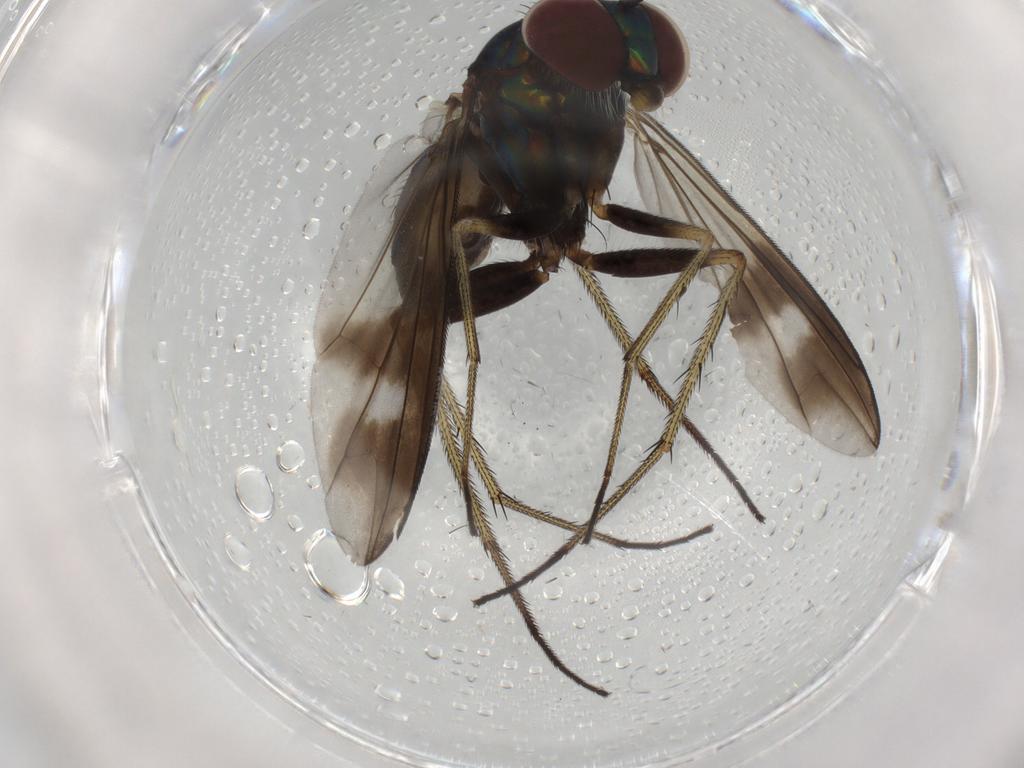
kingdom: Animalia
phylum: Arthropoda
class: Insecta
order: Diptera
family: Dolichopodidae
